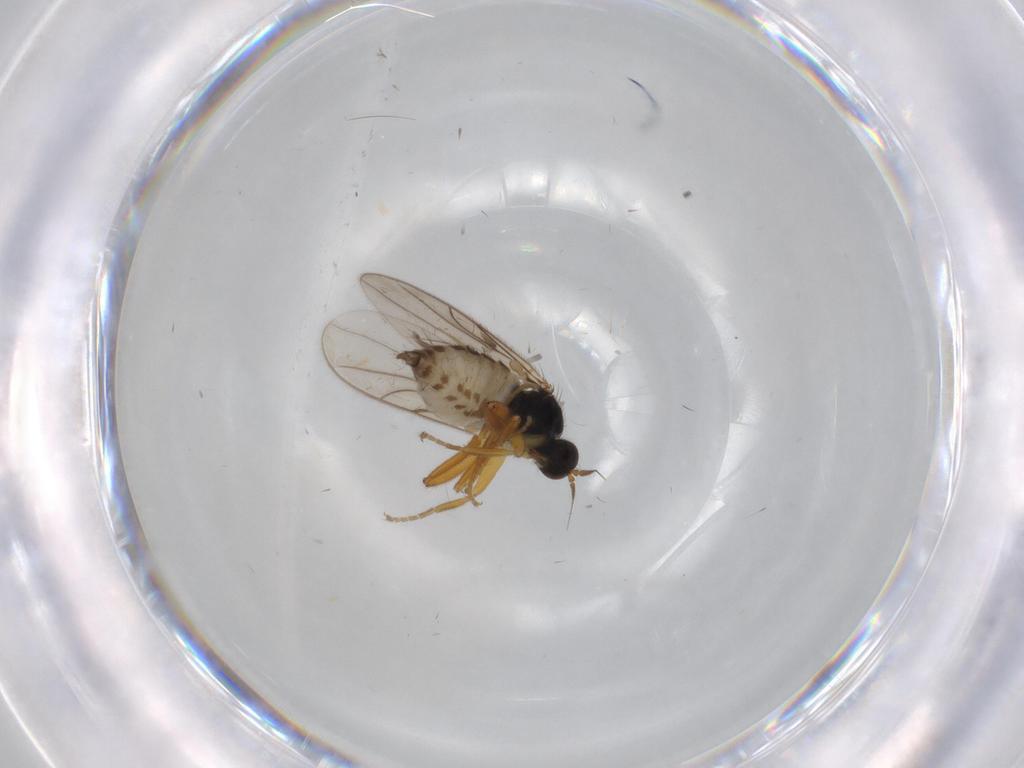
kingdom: Animalia
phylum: Arthropoda
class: Insecta
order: Diptera
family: Hybotidae
